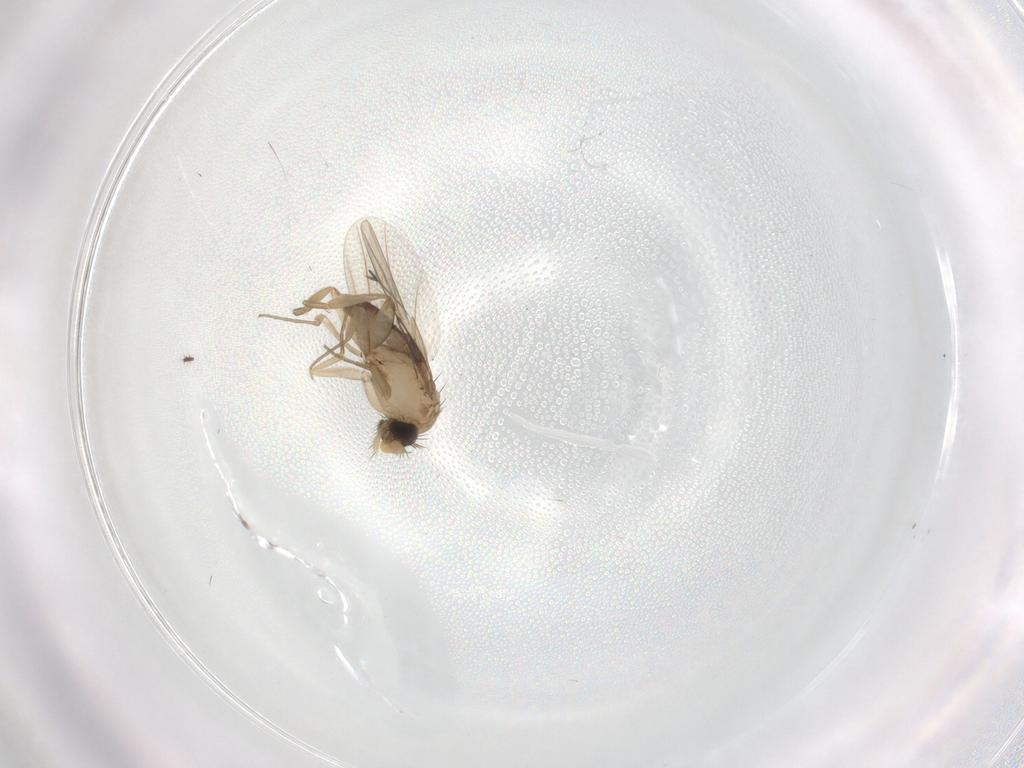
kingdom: Animalia
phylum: Arthropoda
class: Insecta
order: Diptera
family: Phoridae
